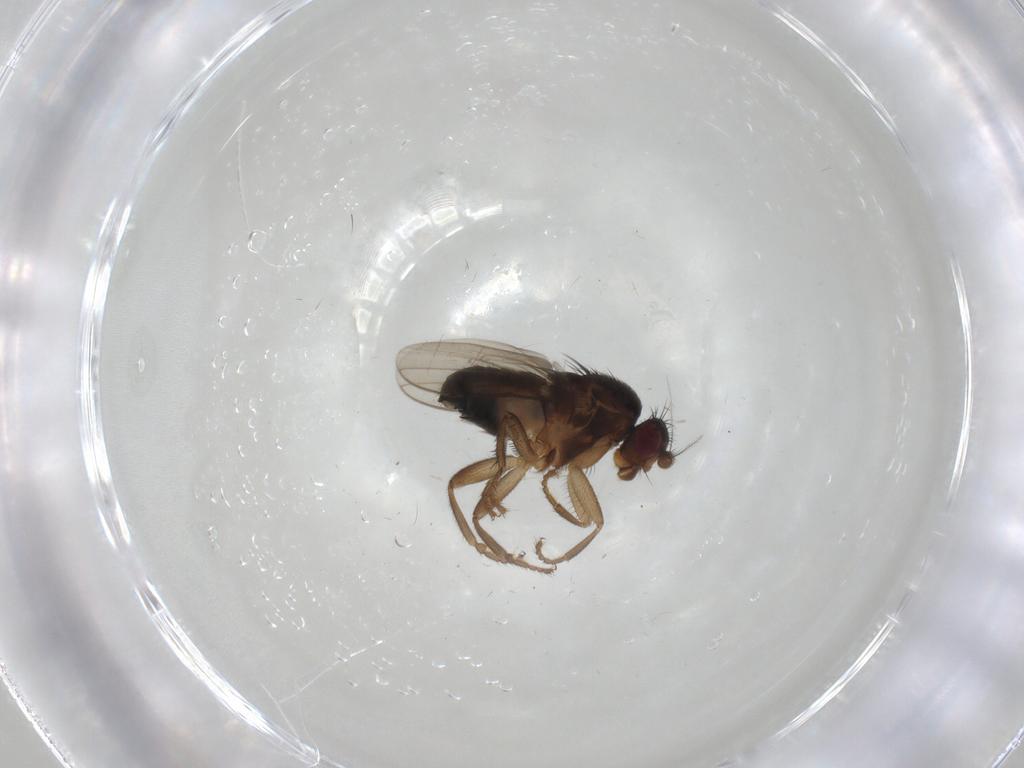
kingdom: Animalia
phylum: Arthropoda
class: Insecta
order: Diptera
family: Sphaeroceridae
